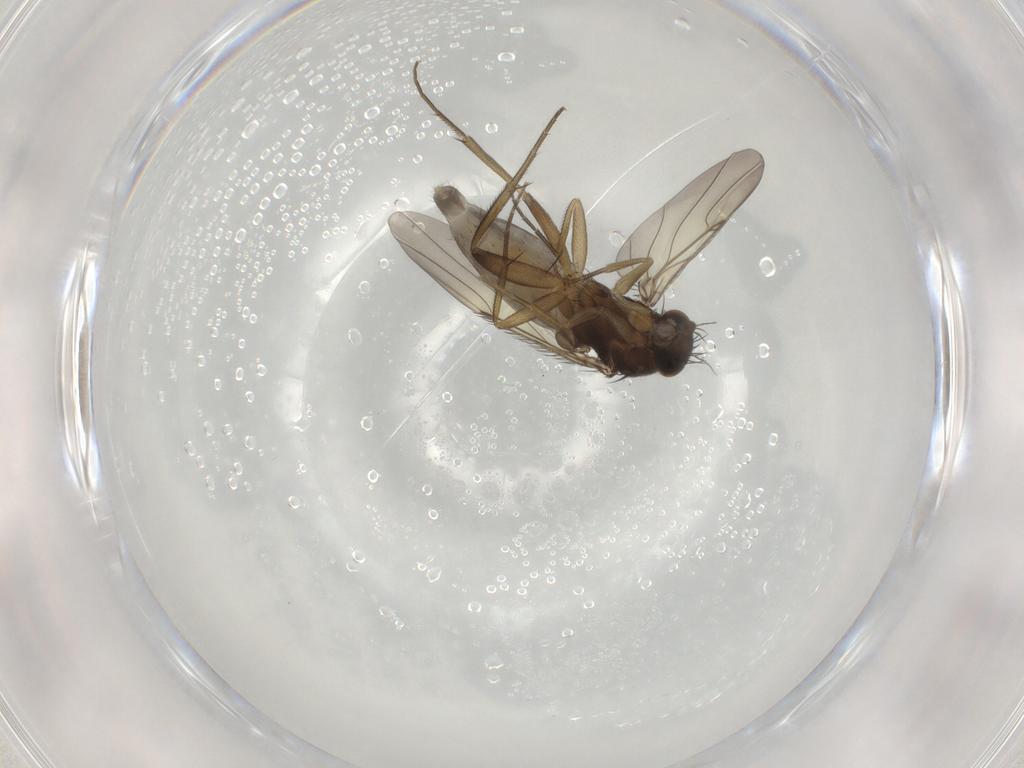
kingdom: Animalia
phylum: Arthropoda
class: Insecta
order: Diptera
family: Phoridae
